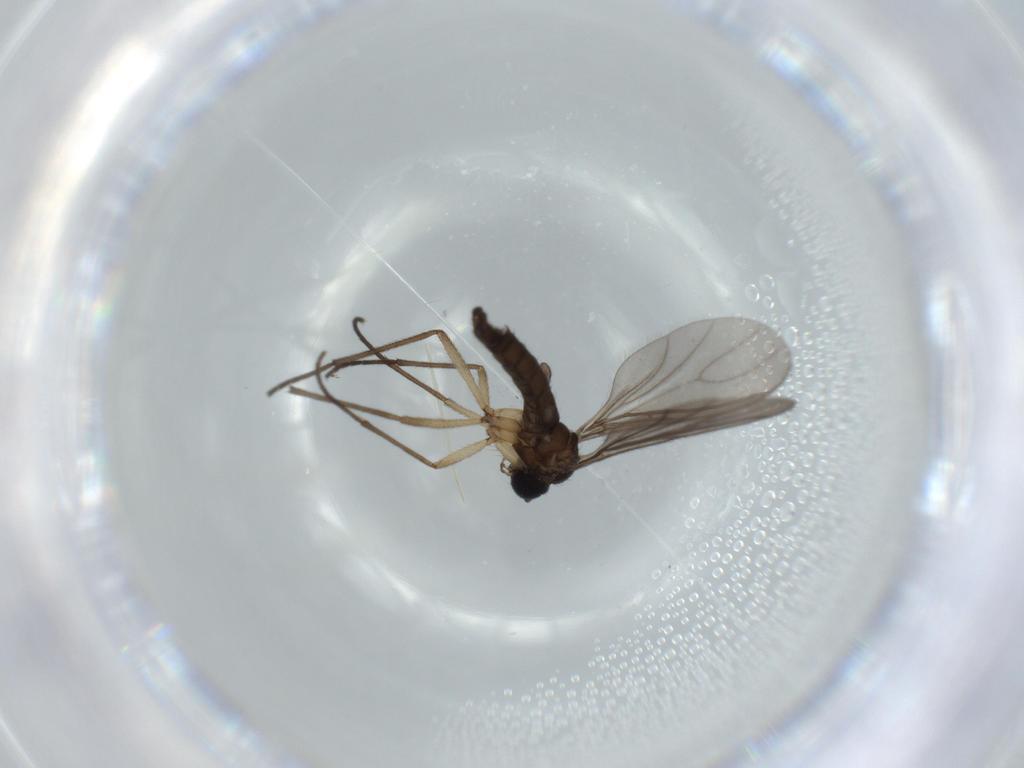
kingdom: Animalia
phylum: Arthropoda
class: Insecta
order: Diptera
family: Sciaridae
